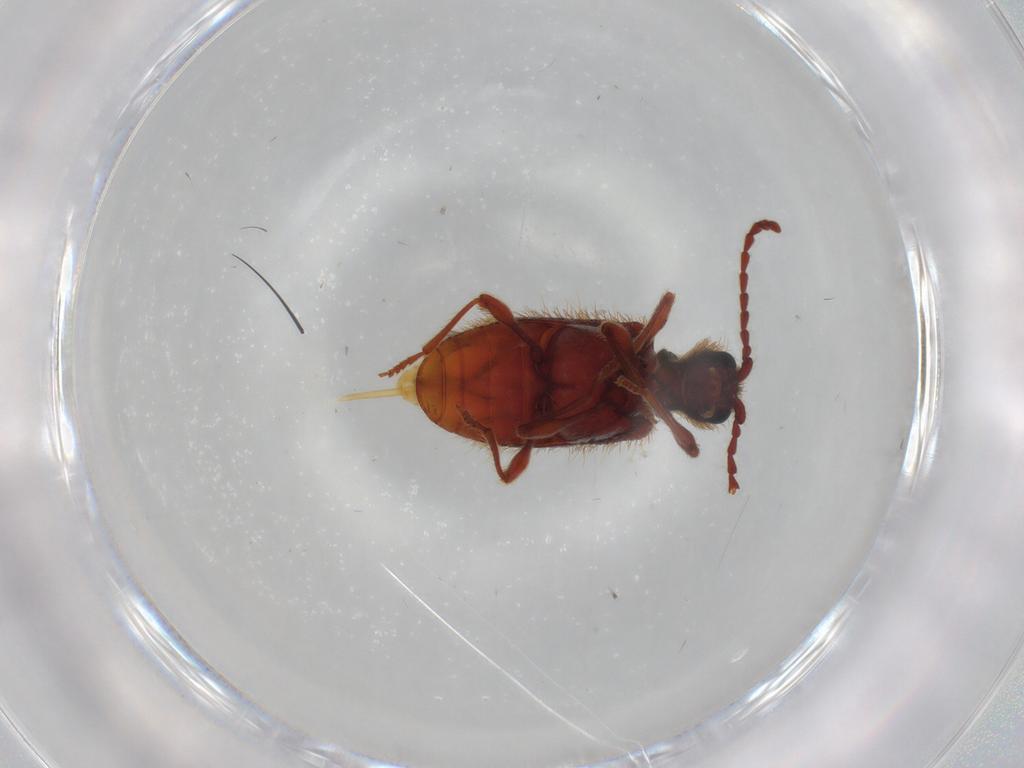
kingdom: Animalia
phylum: Arthropoda
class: Insecta
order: Coleoptera
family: Ptinidae
